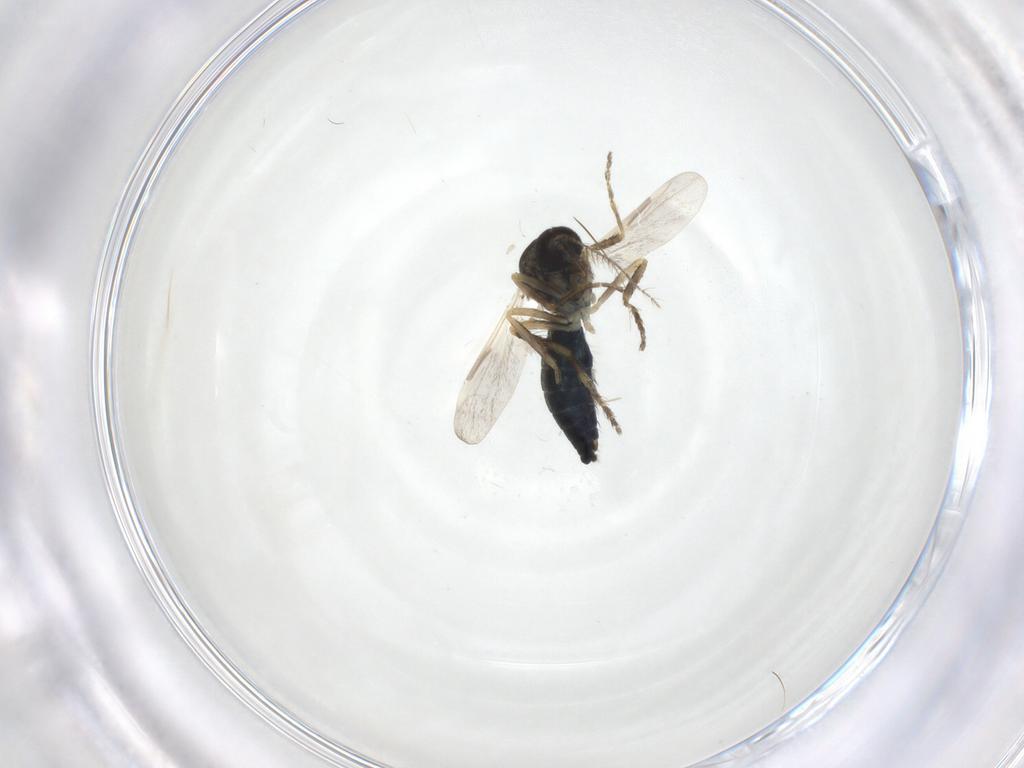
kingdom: Animalia
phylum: Arthropoda
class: Insecta
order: Diptera
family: Ceratopogonidae
